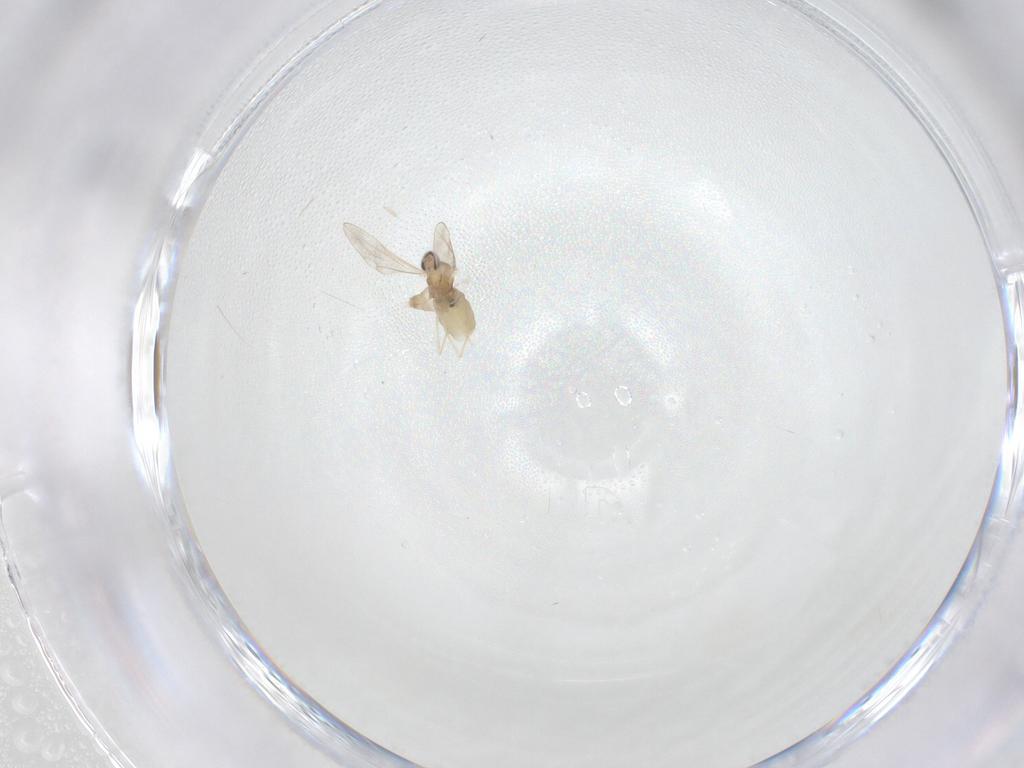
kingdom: Animalia
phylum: Arthropoda
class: Insecta
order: Diptera
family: Cecidomyiidae
